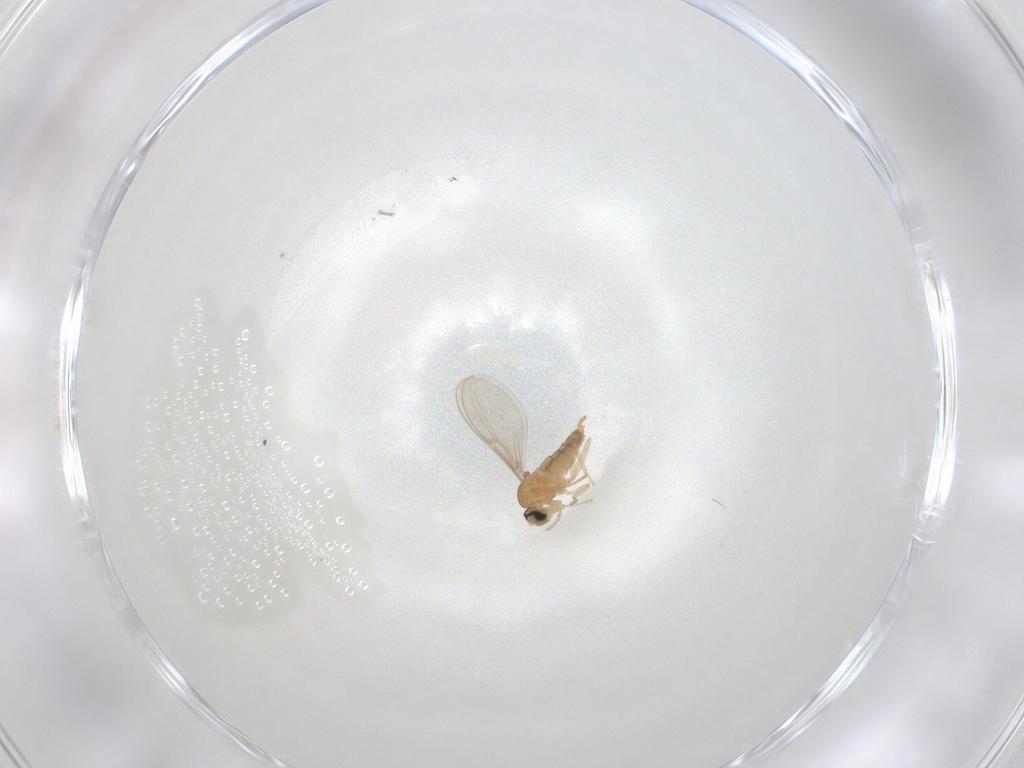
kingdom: Animalia
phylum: Arthropoda
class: Insecta
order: Diptera
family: Cecidomyiidae
